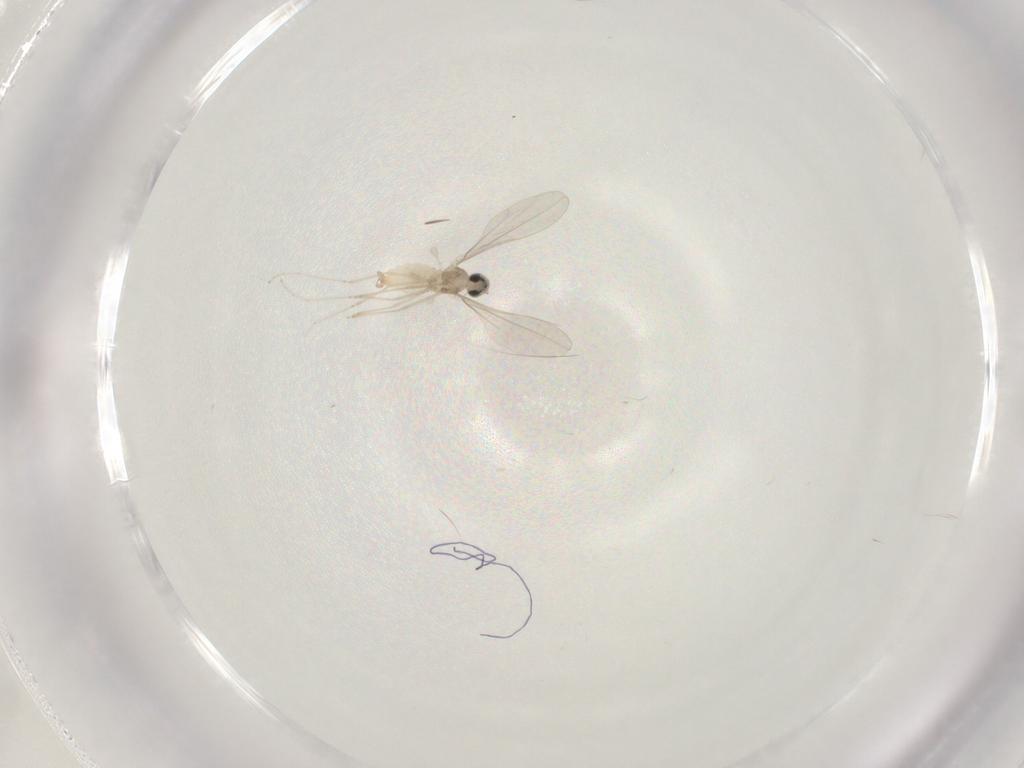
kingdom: Animalia
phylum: Arthropoda
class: Insecta
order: Diptera
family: Cecidomyiidae
